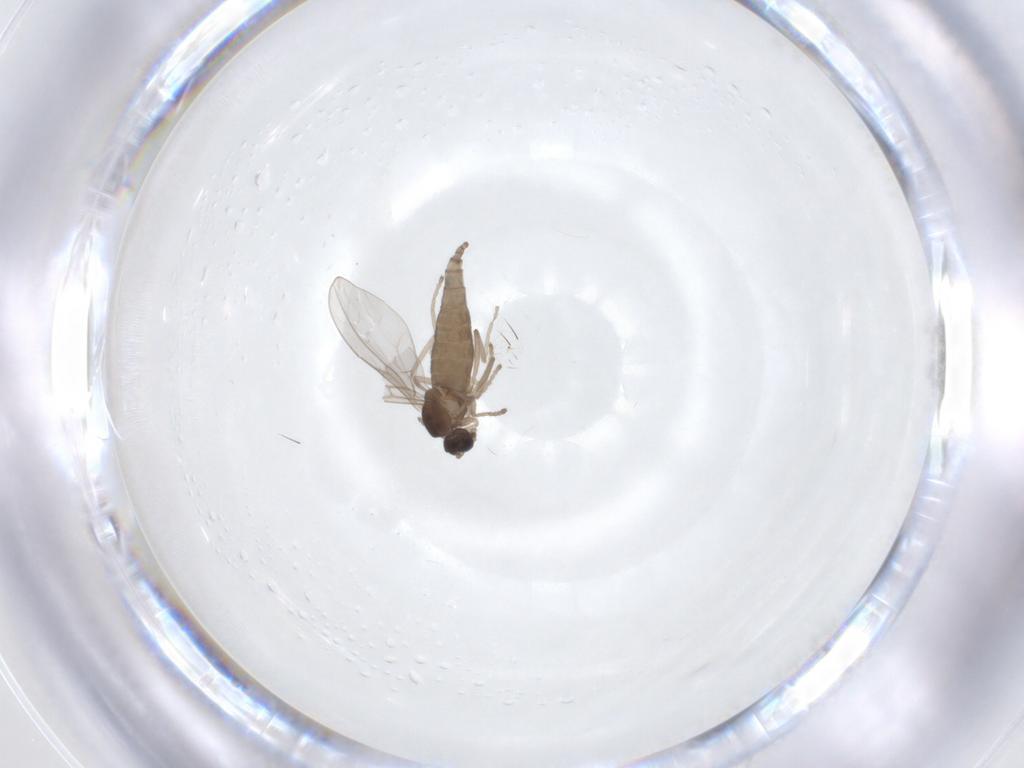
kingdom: Animalia
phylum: Arthropoda
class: Insecta
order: Diptera
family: Cecidomyiidae
